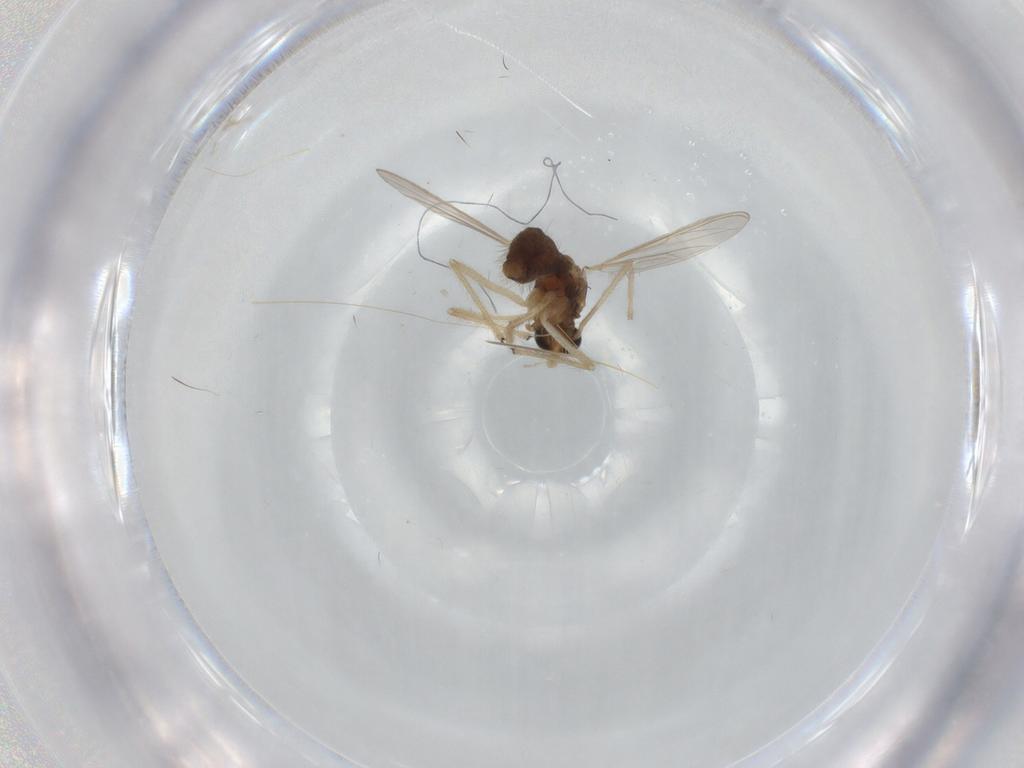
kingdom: Animalia
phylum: Arthropoda
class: Insecta
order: Diptera
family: Chironomidae
